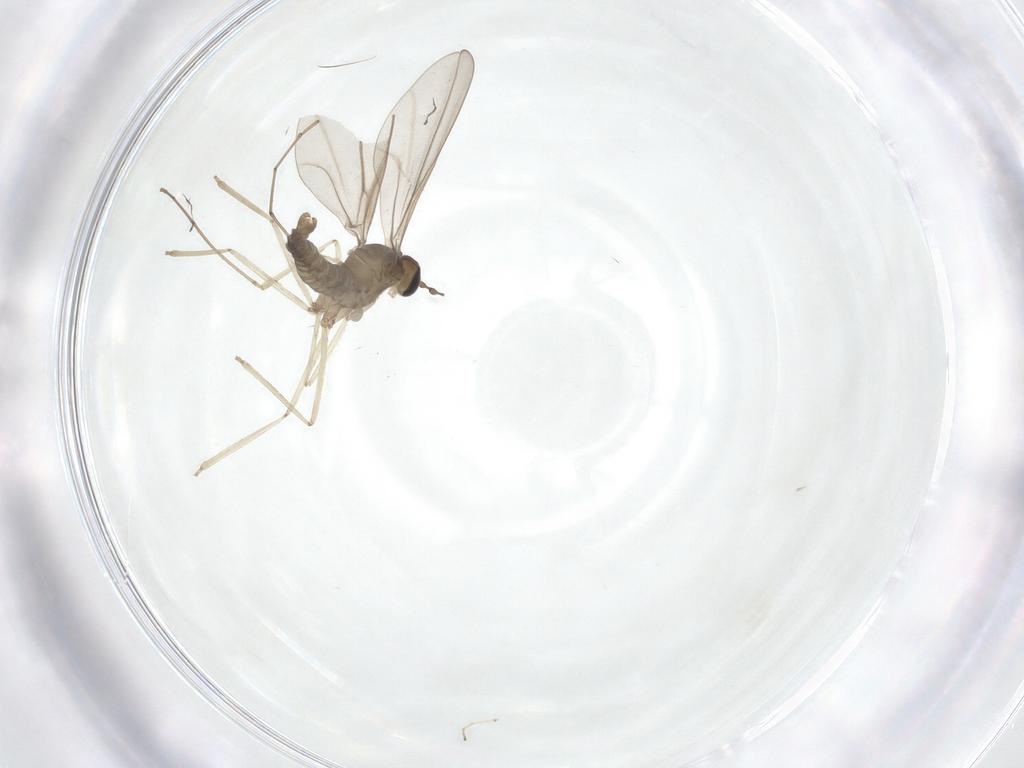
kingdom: Animalia
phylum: Arthropoda
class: Insecta
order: Diptera
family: Cecidomyiidae
